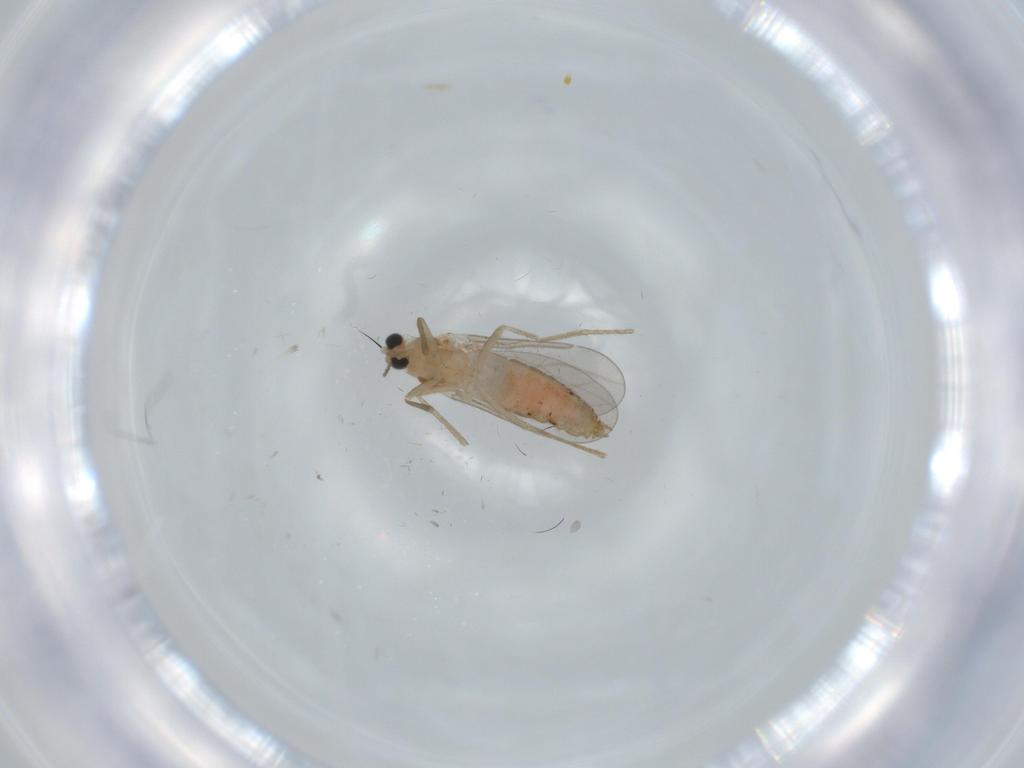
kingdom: Animalia
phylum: Arthropoda
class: Insecta
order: Diptera
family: Cecidomyiidae
